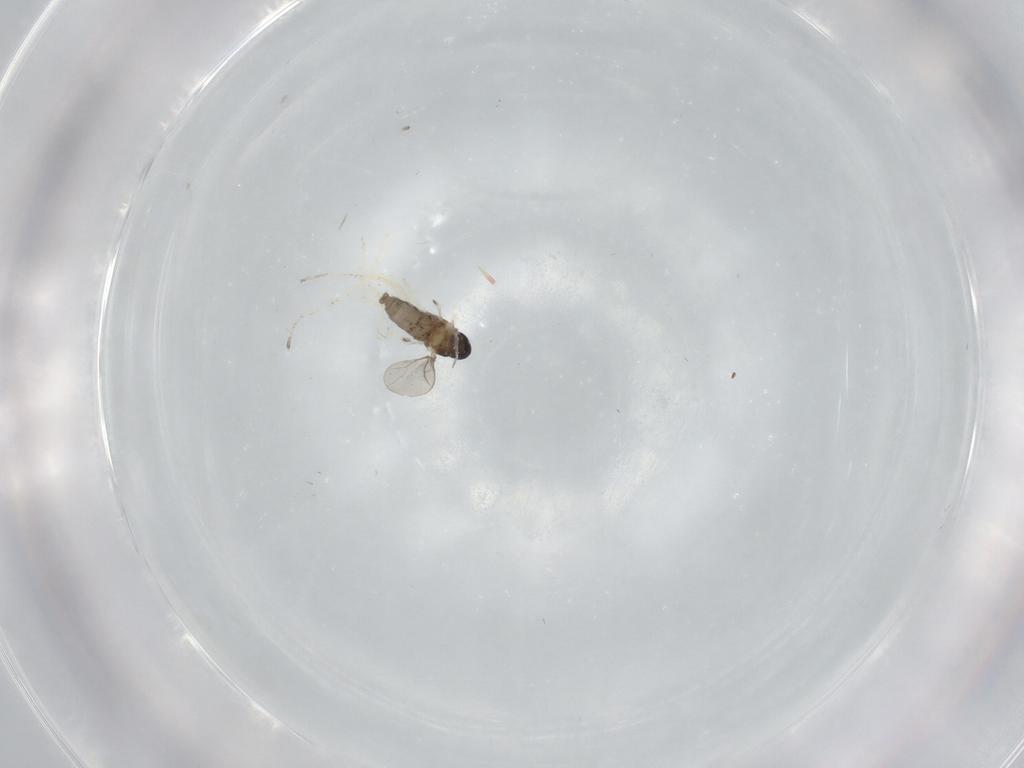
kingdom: Animalia
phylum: Arthropoda
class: Insecta
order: Diptera
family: Sciaridae
